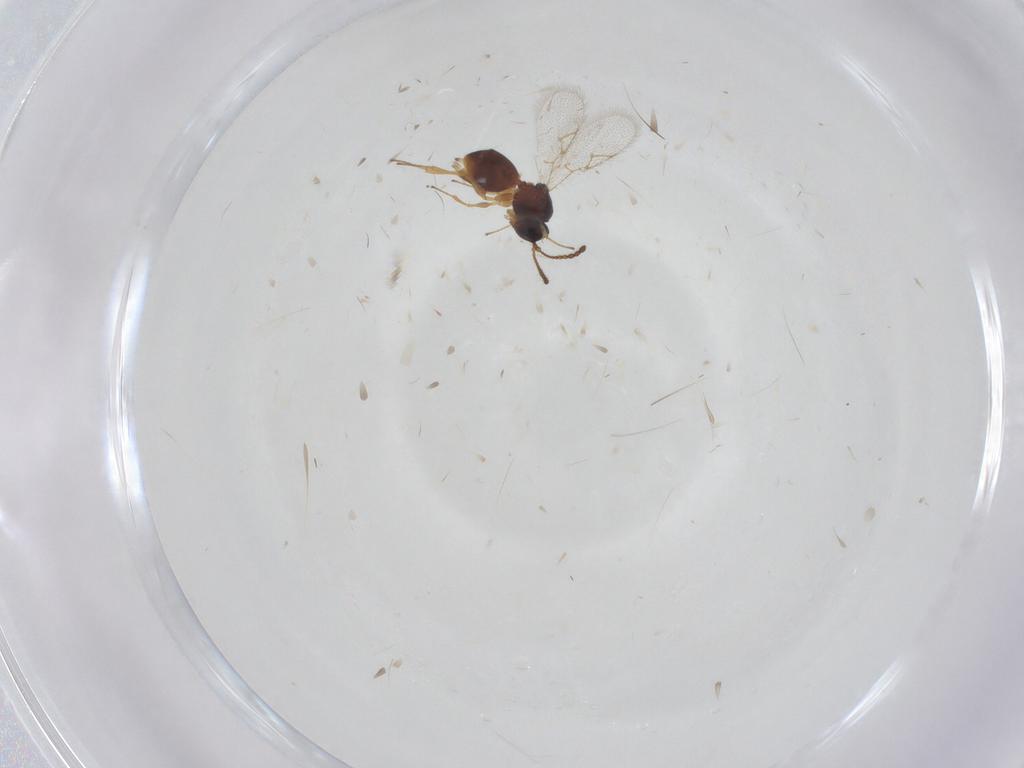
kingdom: Animalia
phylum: Arthropoda
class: Insecta
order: Hymenoptera
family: Figitidae
